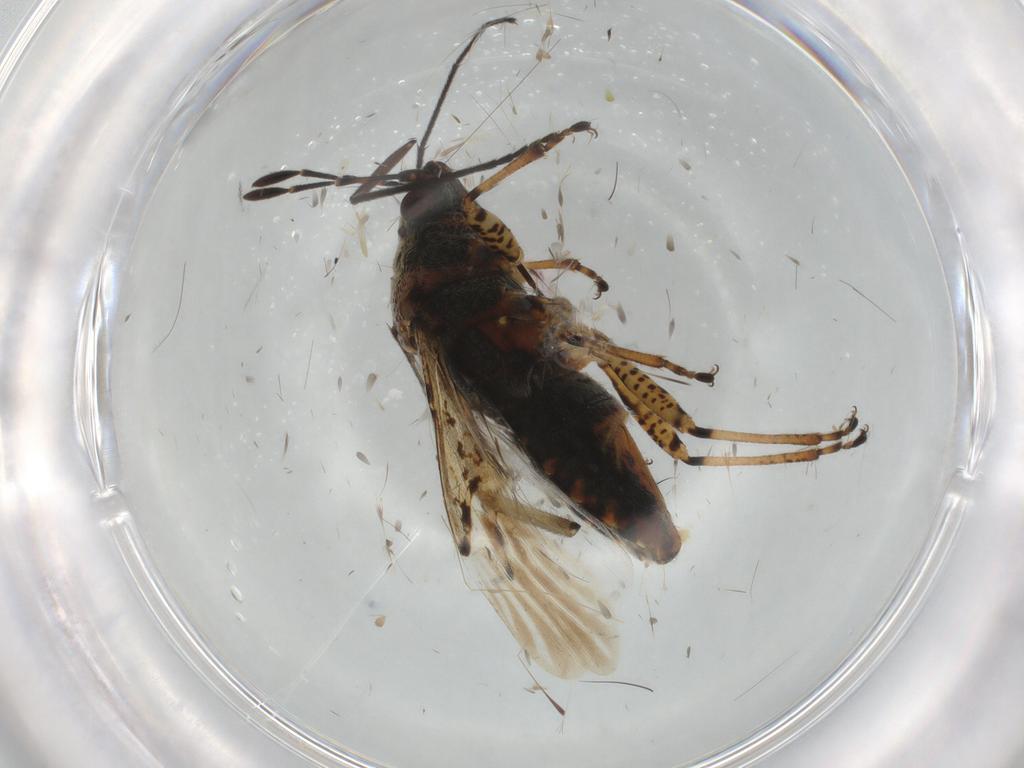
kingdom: Animalia
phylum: Arthropoda
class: Insecta
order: Hemiptera
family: Lygaeidae
